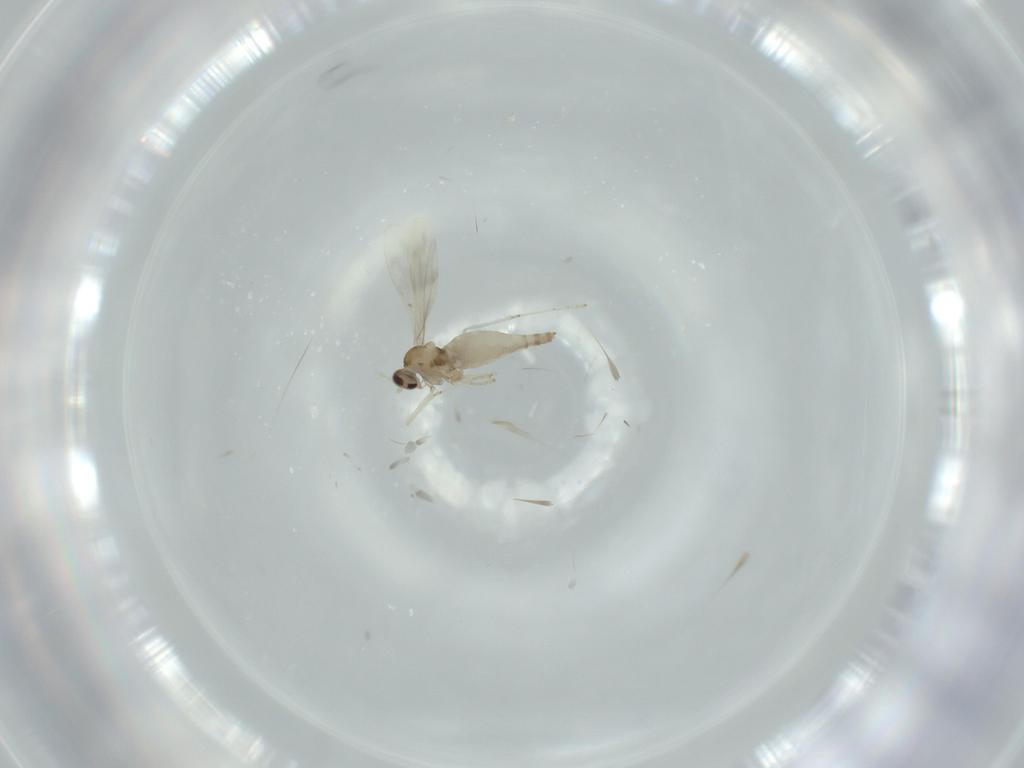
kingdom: Animalia
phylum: Arthropoda
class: Insecta
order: Diptera
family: Cecidomyiidae
